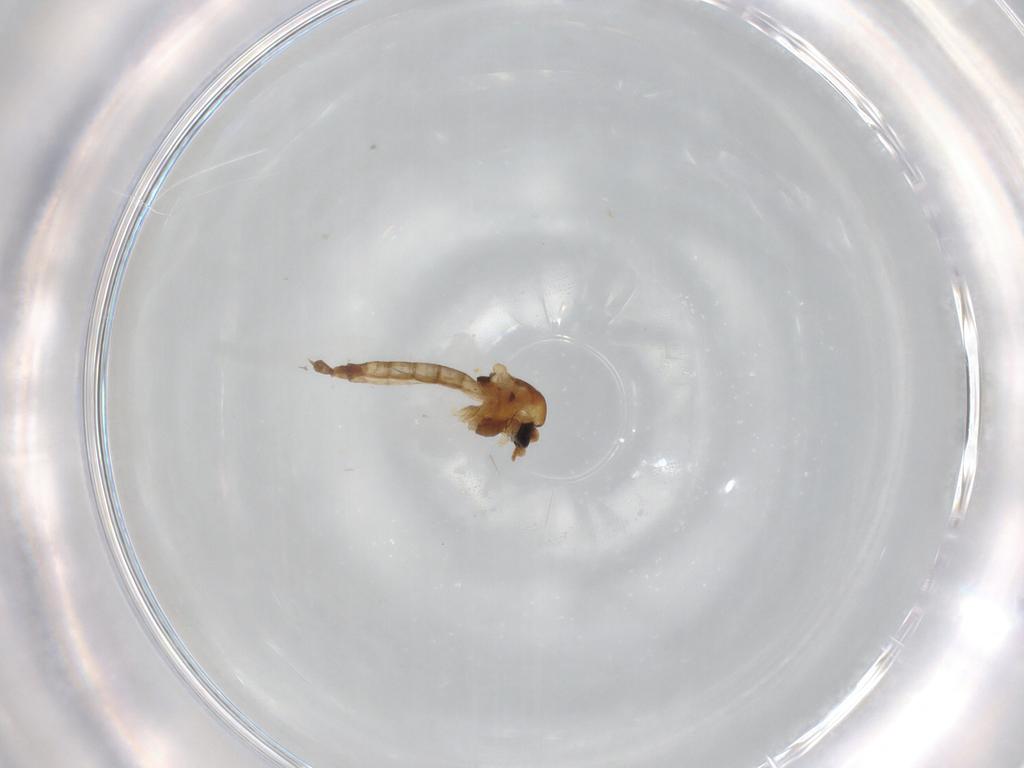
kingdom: Animalia
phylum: Arthropoda
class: Insecta
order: Diptera
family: Chironomidae
